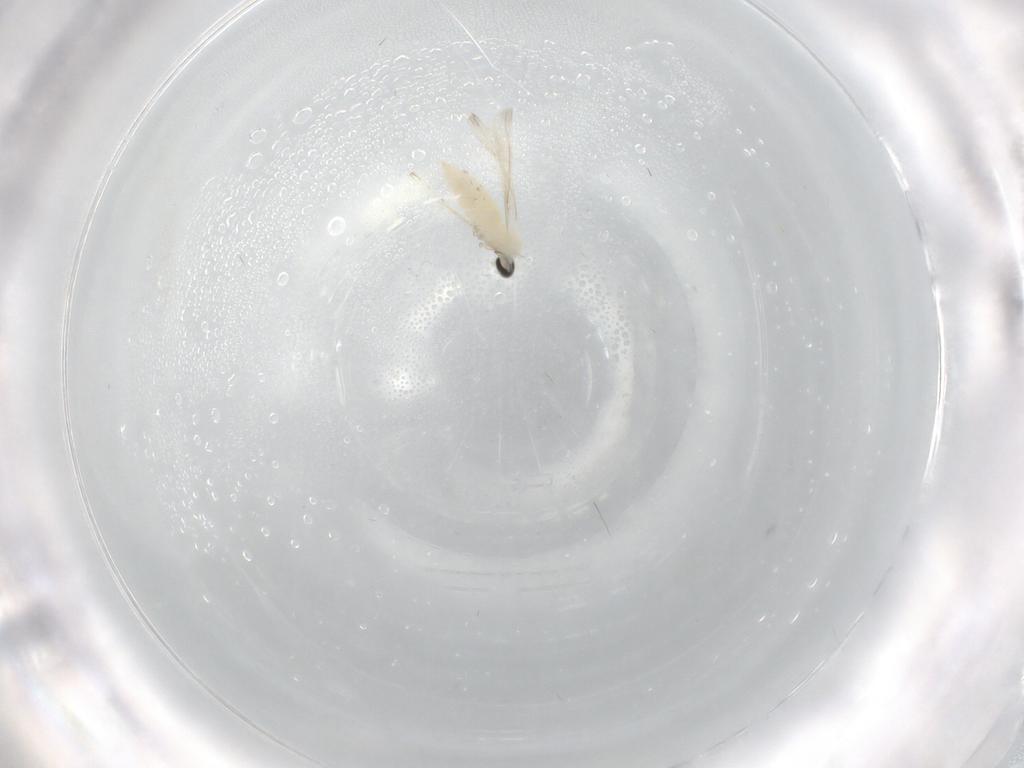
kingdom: Animalia
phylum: Arthropoda
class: Insecta
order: Diptera
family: Cecidomyiidae
